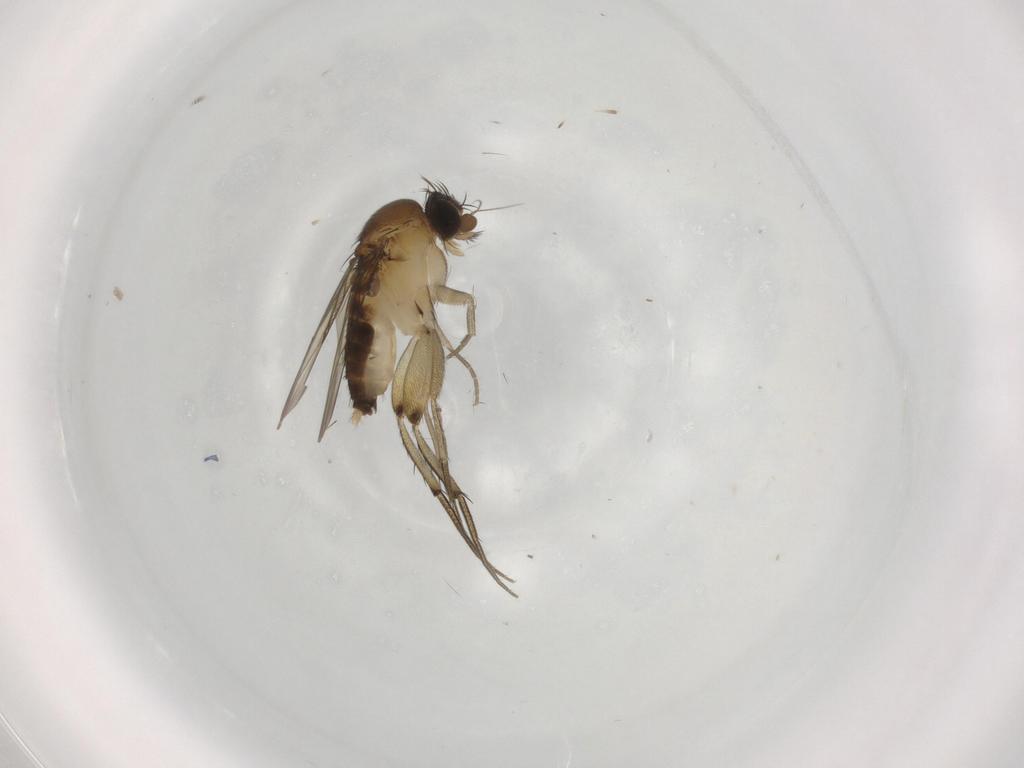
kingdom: Animalia
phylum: Arthropoda
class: Insecta
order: Diptera
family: Phoridae
